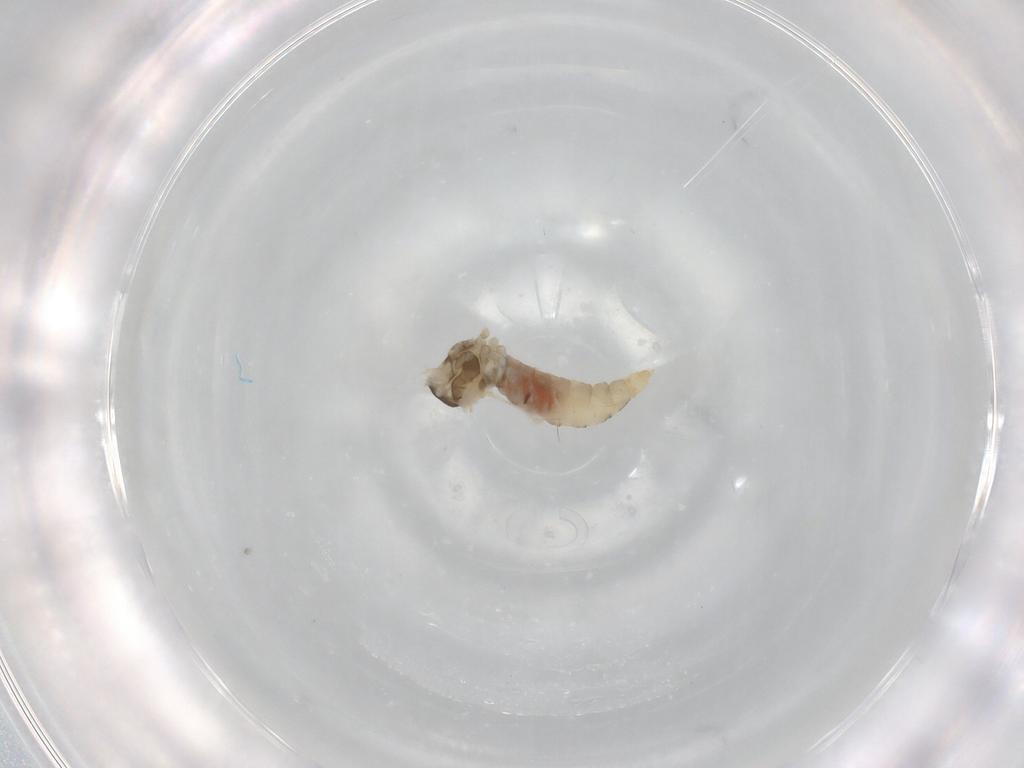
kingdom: Animalia
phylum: Arthropoda
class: Insecta
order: Diptera
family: Cecidomyiidae
